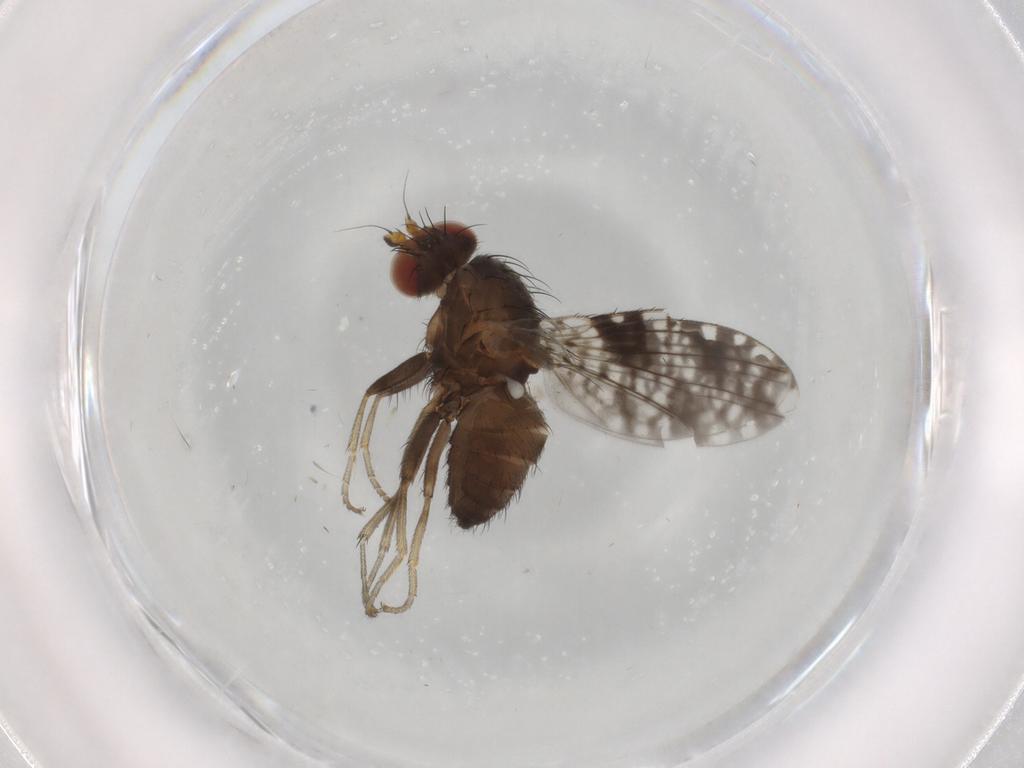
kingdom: Animalia
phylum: Arthropoda
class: Insecta
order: Diptera
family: Tephritidae
